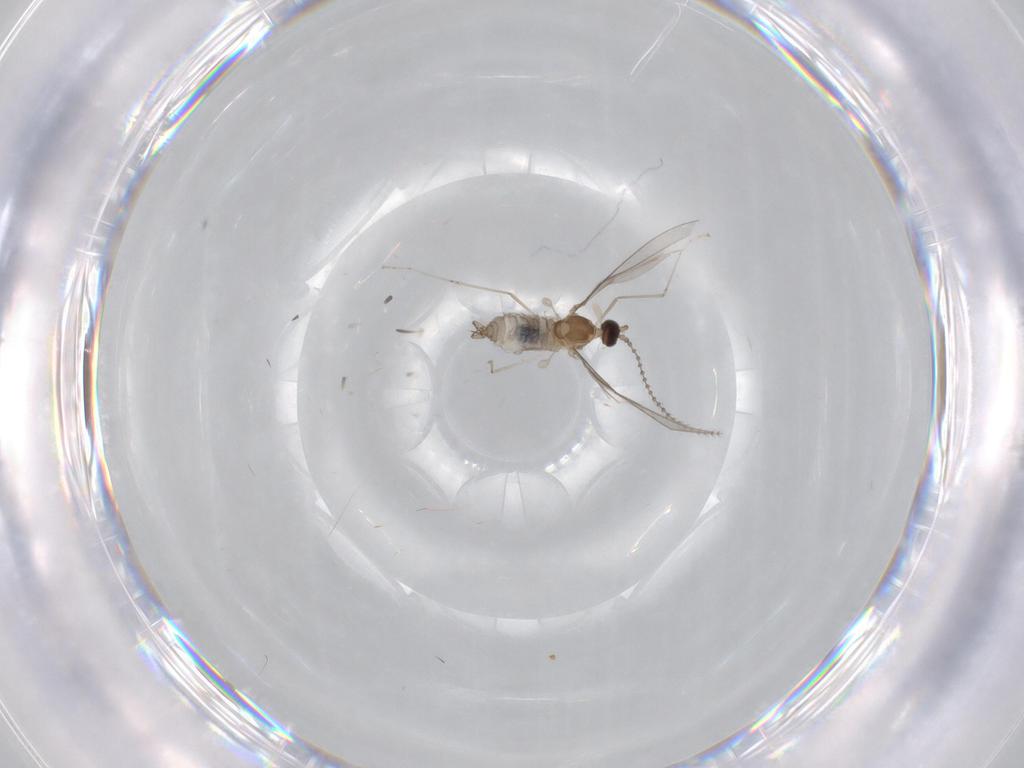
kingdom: Animalia
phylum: Arthropoda
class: Insecta
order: Diptera
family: Cecidomyiidae
